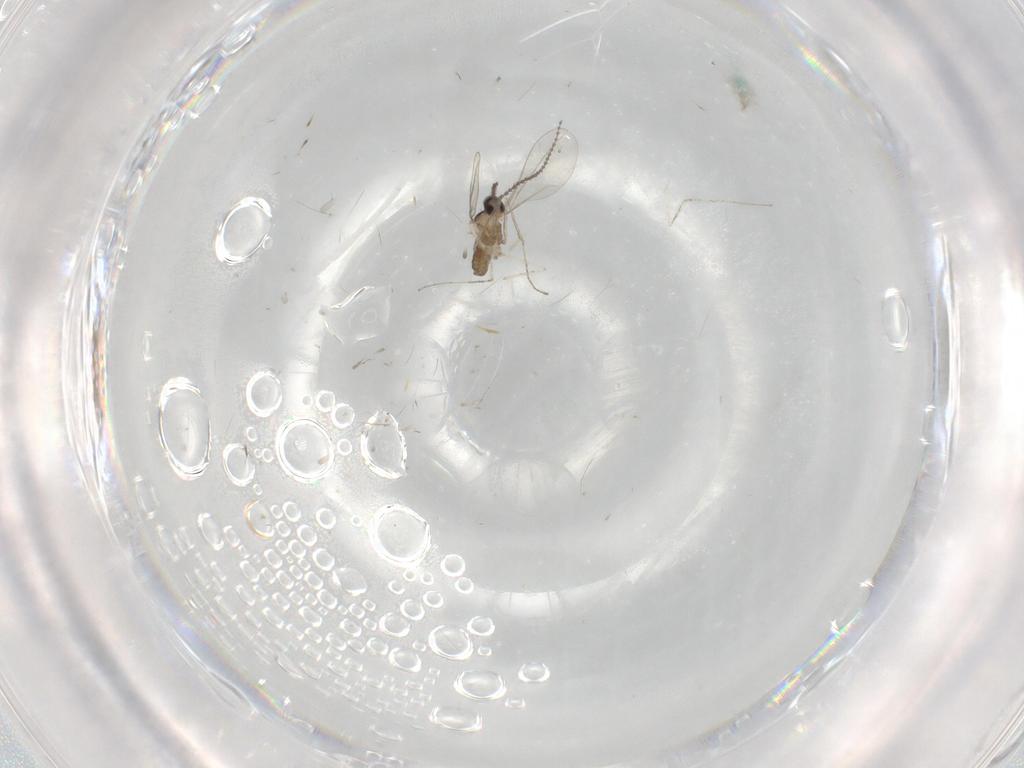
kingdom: Animalia
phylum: Arthropoda
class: Insecta
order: Diptera
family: Cecidomyiidae
